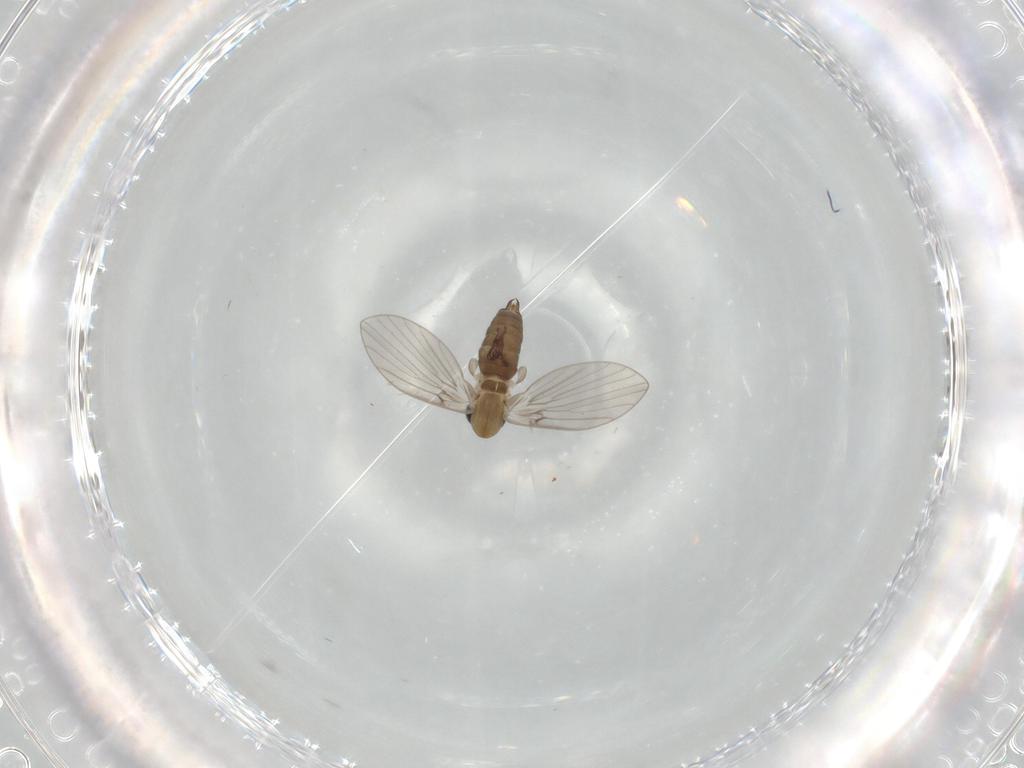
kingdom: Animalia
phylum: Arthropoda
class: Insecta
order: Diptera
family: Psychodidae
